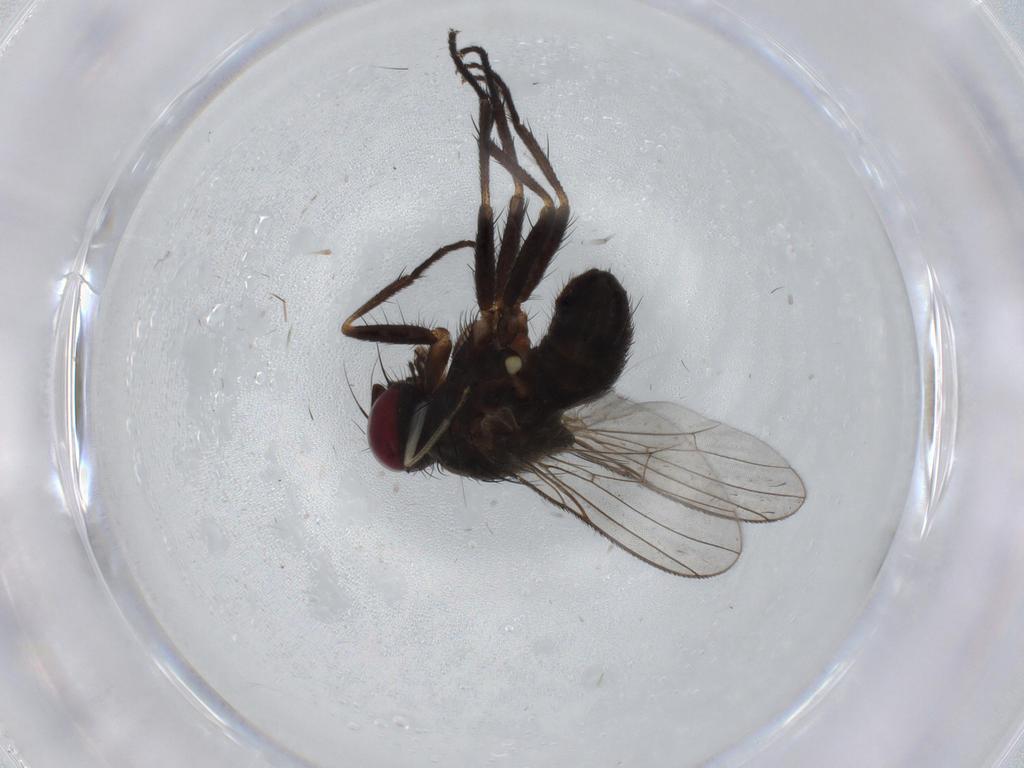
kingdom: Animalia
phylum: Arthropoda
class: Insecta
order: Diptera
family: Muscidae
